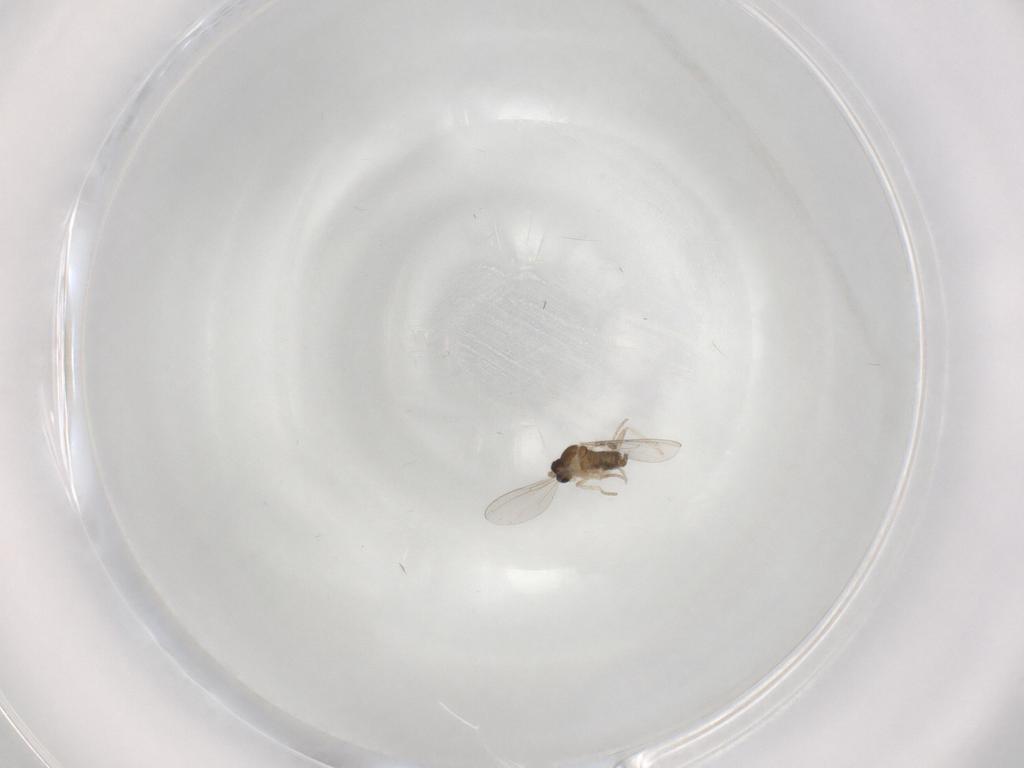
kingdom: Animalia
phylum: Arthropoda
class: Insecta
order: Diptera
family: Cecidomyiidae
